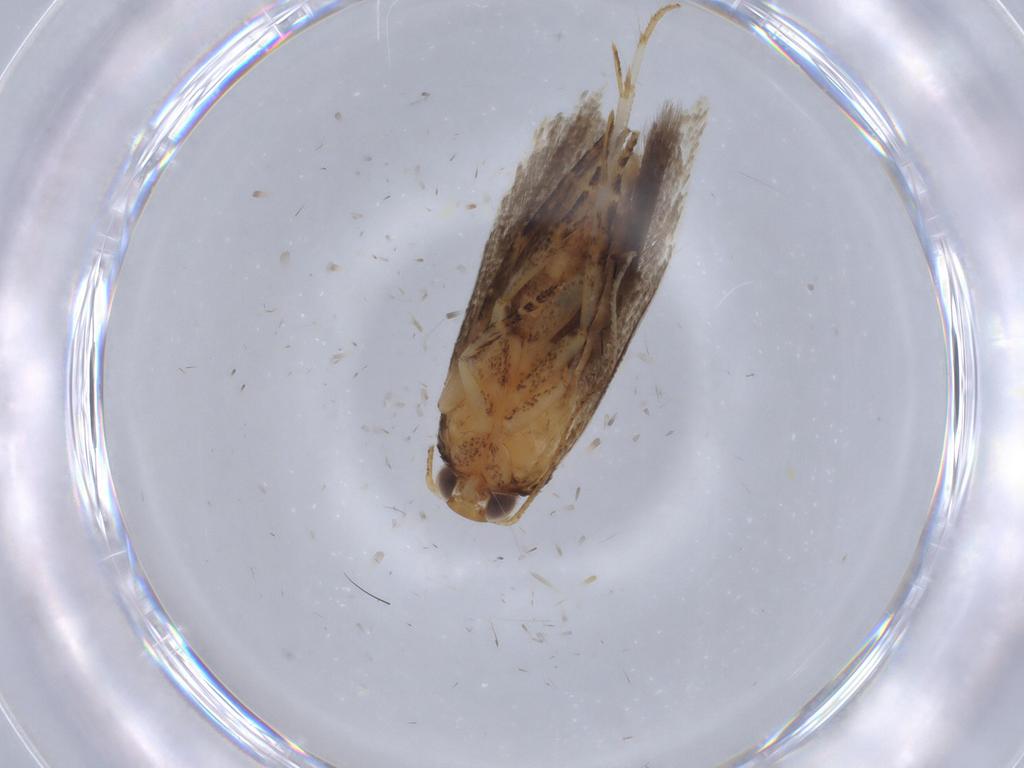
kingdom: Animalia
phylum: Arthropoda
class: Insecta
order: Lepidoptera
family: Gelechiidae
